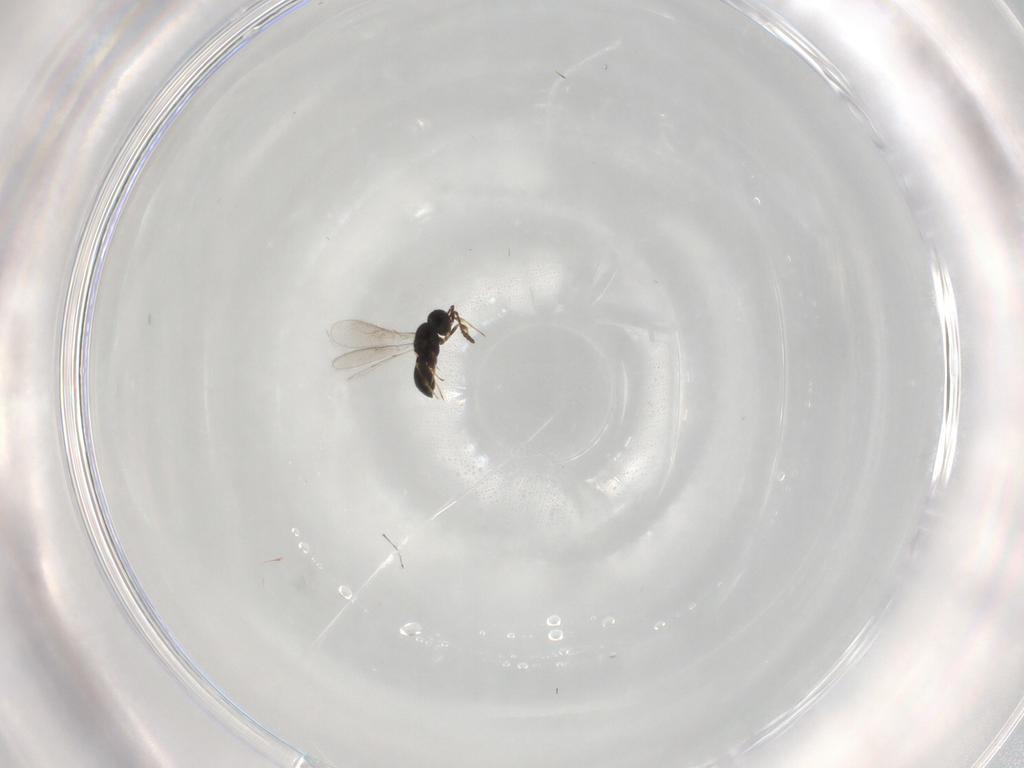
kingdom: Animalia
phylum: Arthropoda
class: Insecta
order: Hymenoptera
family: Scelionidae
